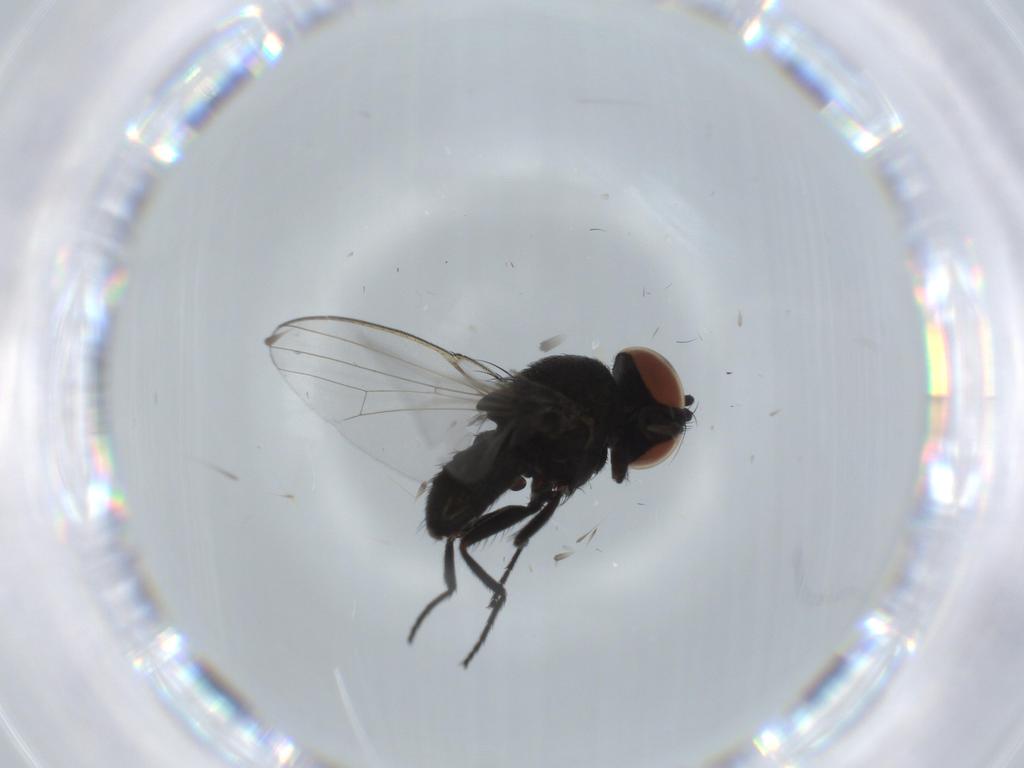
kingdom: Animalia
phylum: Arthropoda
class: Insecta
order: Diptera
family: Milichiidae
